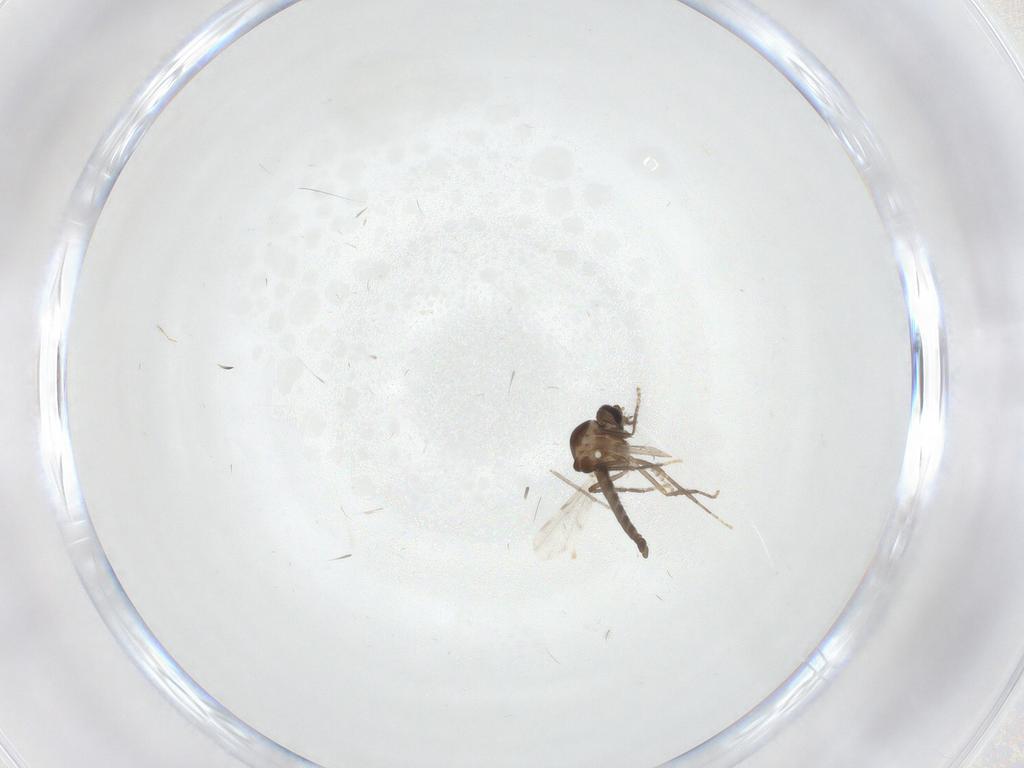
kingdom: Animalia
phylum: Arthropoda
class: Insecta
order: Diptera
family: Ceratopogonidae
